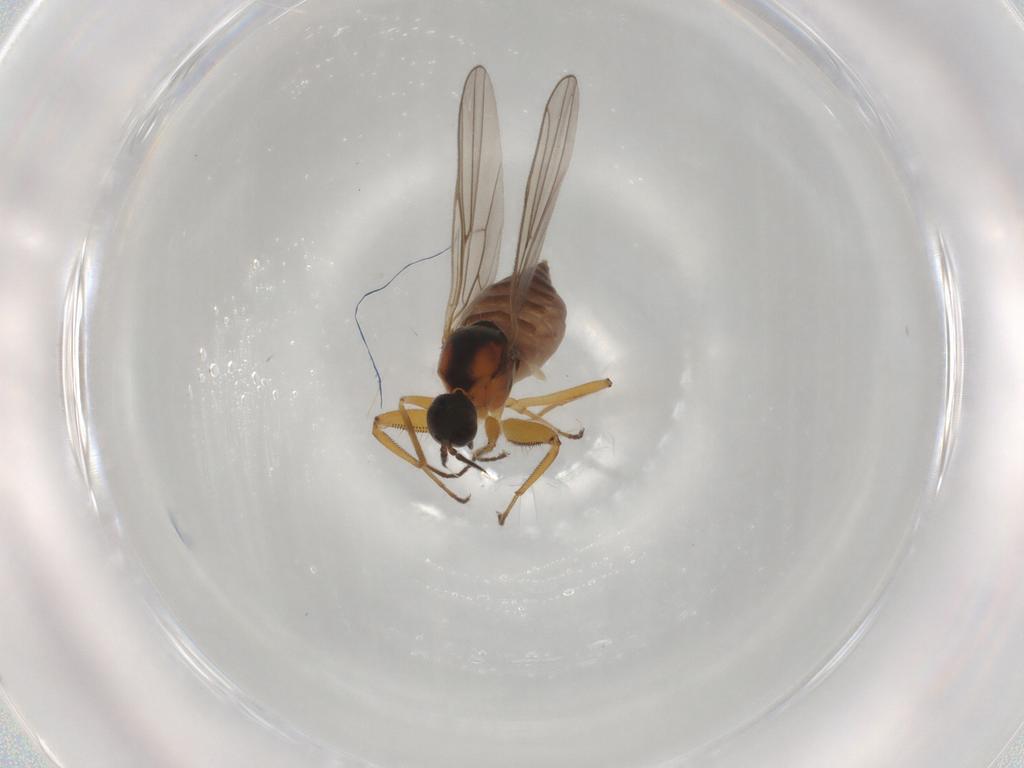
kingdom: Animalia
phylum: Arthropoda
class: Insecta
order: Diptera
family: Hybotidae
